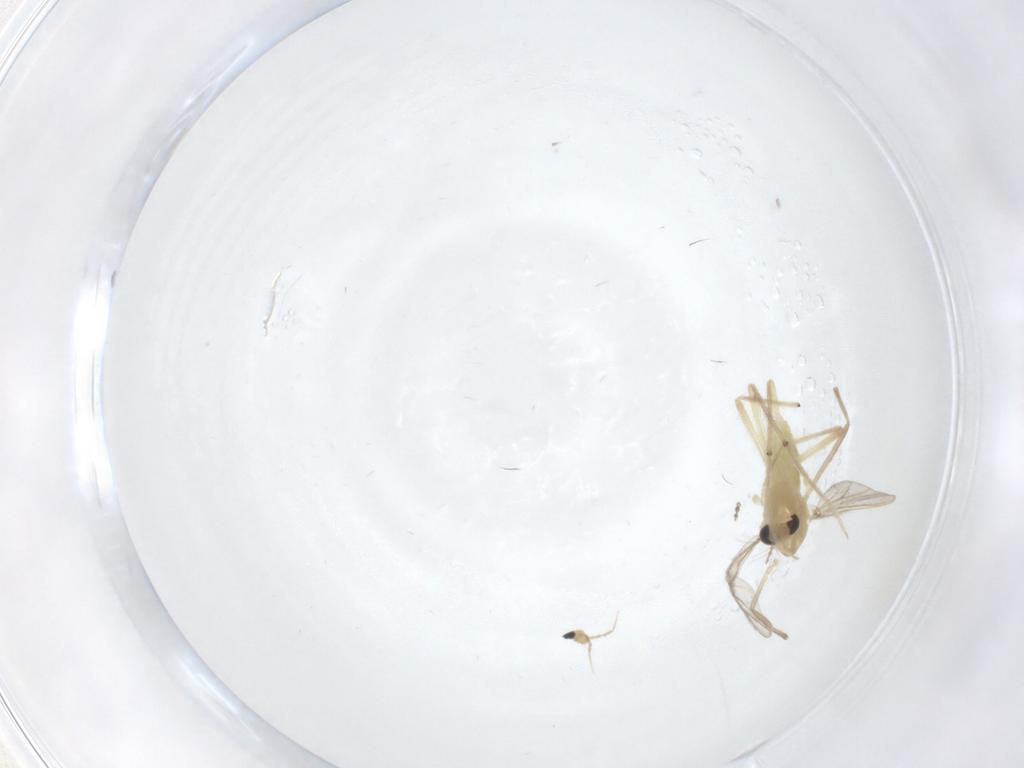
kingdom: Animalia
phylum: Arthropoda
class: Insecta
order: Diptera
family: Chironomidae
